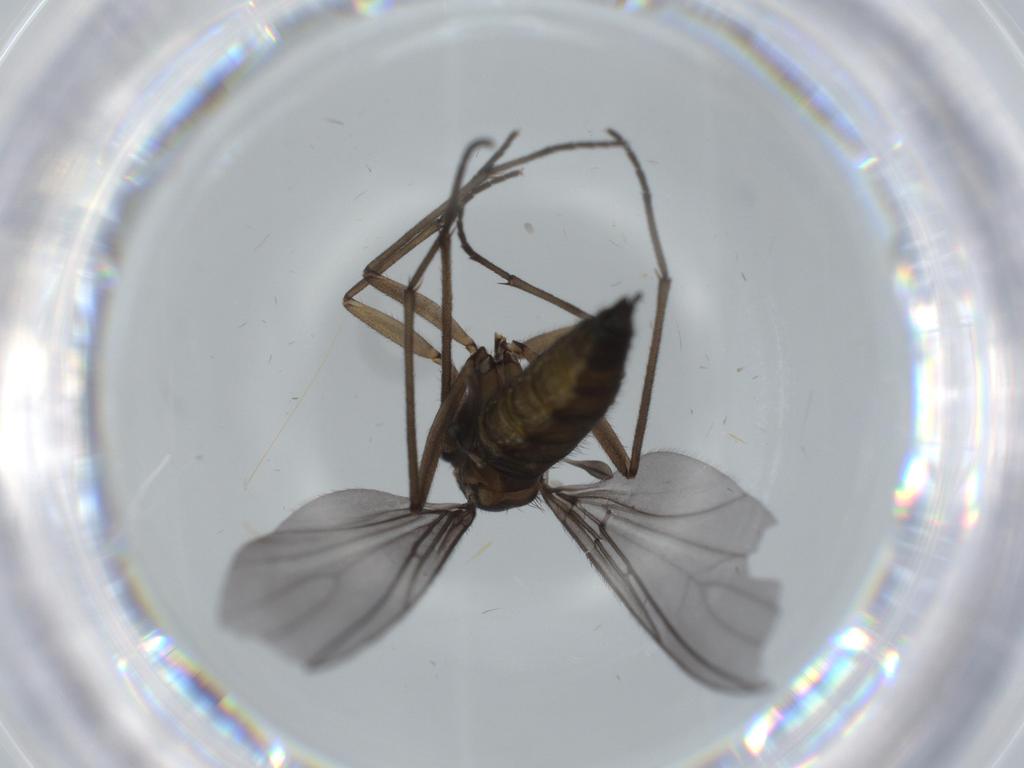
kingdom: Animalia
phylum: Arthropoda
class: Insecta
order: Diptera
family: Sciaridae
